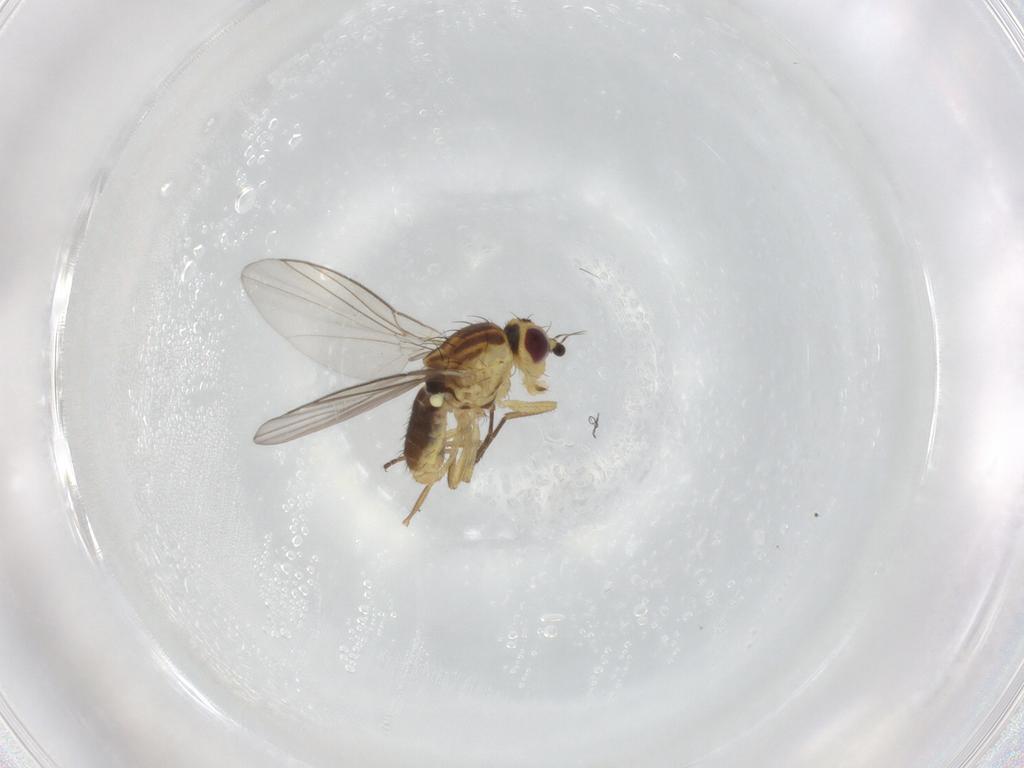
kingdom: Animalia
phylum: Arthropoda
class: Insecta
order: Diptera
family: Agromyzidae
